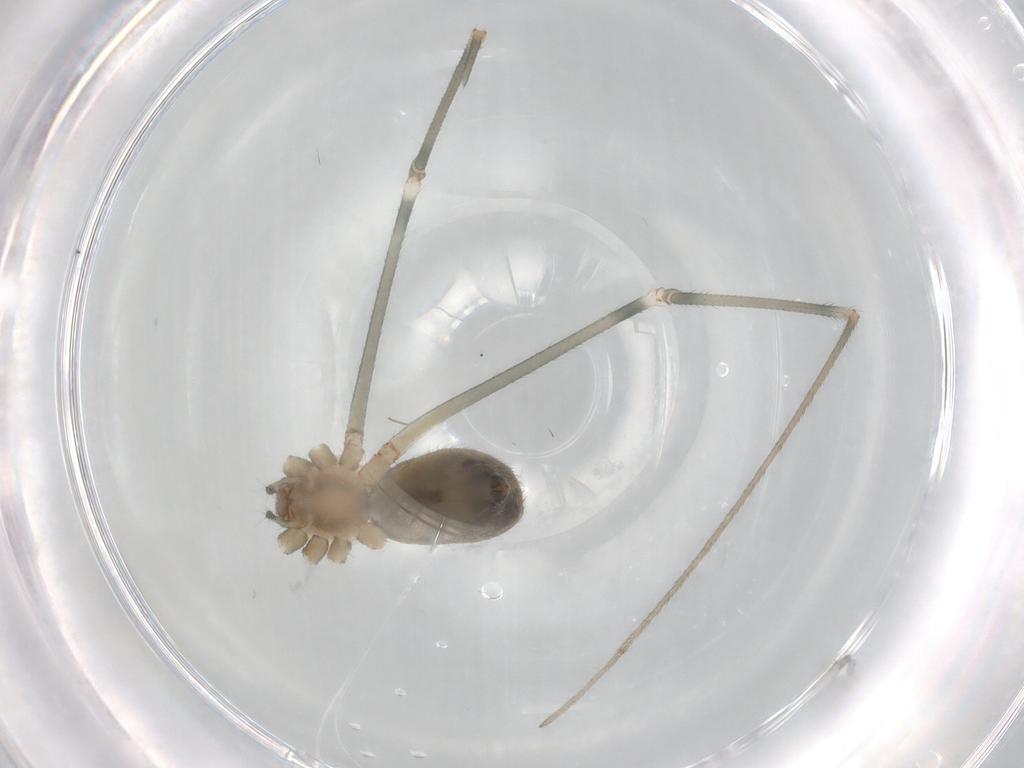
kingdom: Animalia
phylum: Arthropoda
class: Arachnida
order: Araneae
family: Pholcidae
